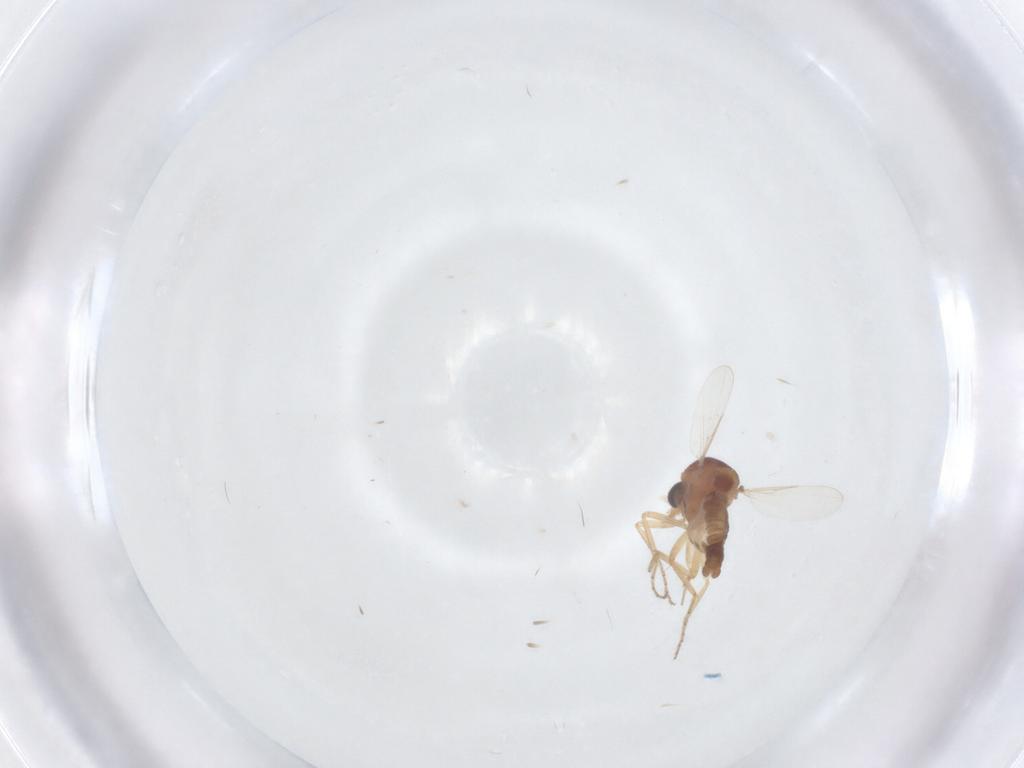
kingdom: Animalia
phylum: Arthropoda
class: Insecta
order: Diptera
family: Ceratopogonidae
